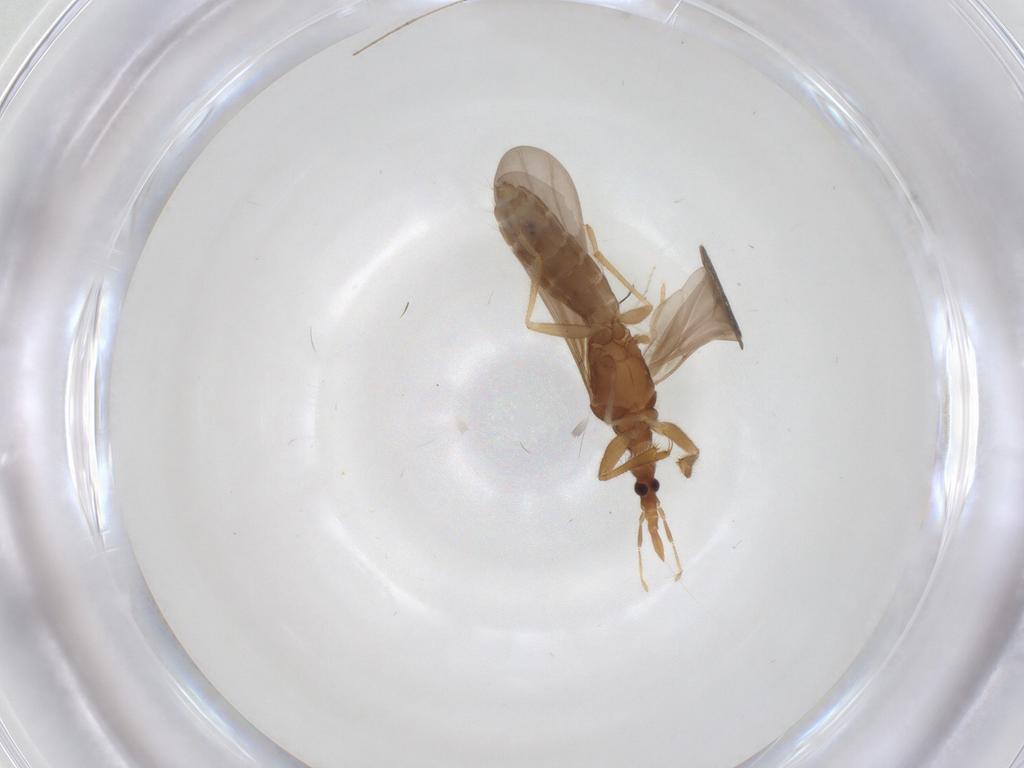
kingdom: Animalia
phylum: Arthropoda
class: Insecta
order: Hemiptera
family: Enicocephalidae
